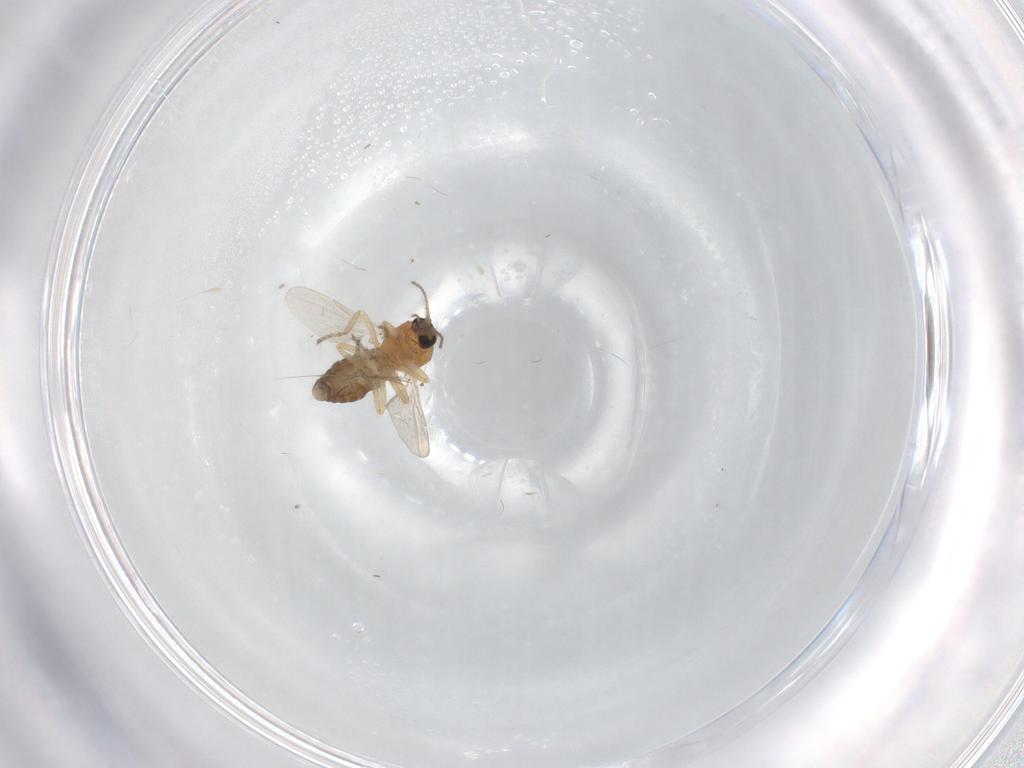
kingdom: Animalia
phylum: Arthropoda
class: Insecta
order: Diptera
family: Ceratopogonidae
